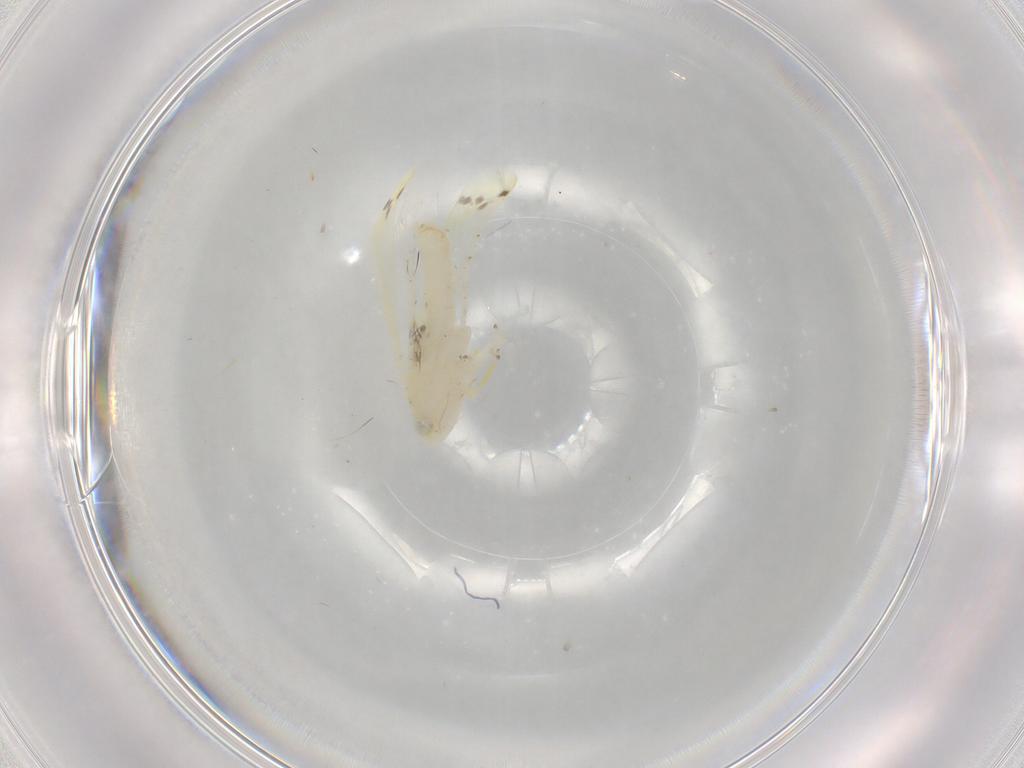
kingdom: Animalia
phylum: Arthropoda
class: Insecta
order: Hemiptera
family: Cicadellidae
